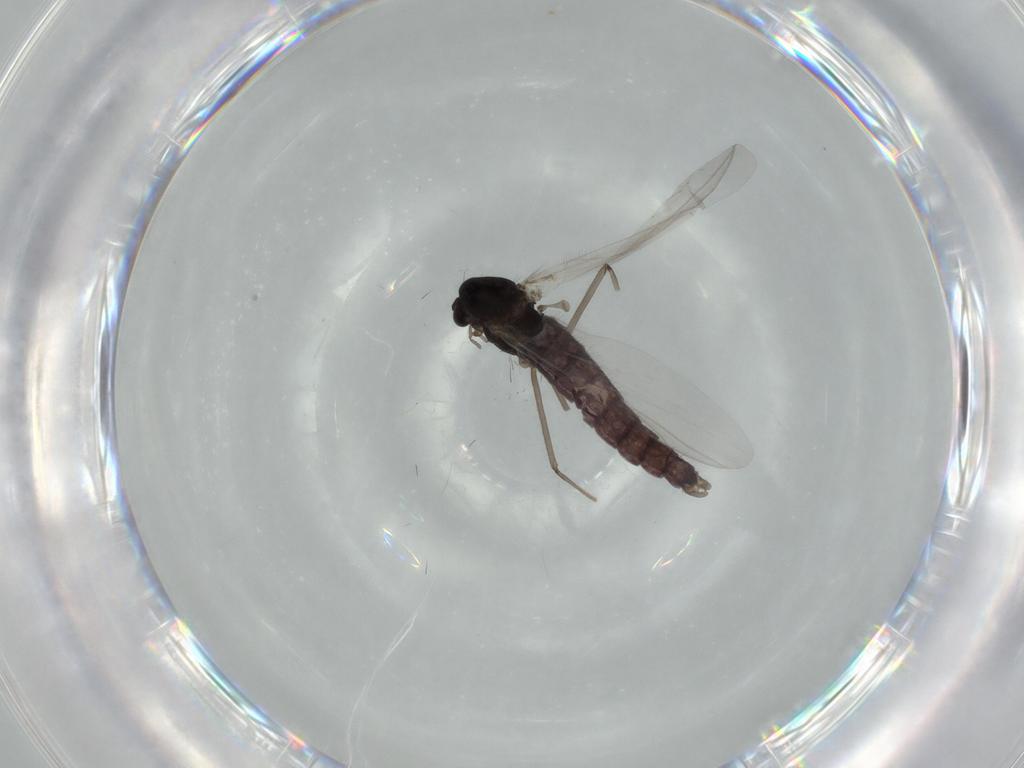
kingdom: Animalia
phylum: Arthropoda
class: Insecta
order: Diptera
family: Chironomidae
